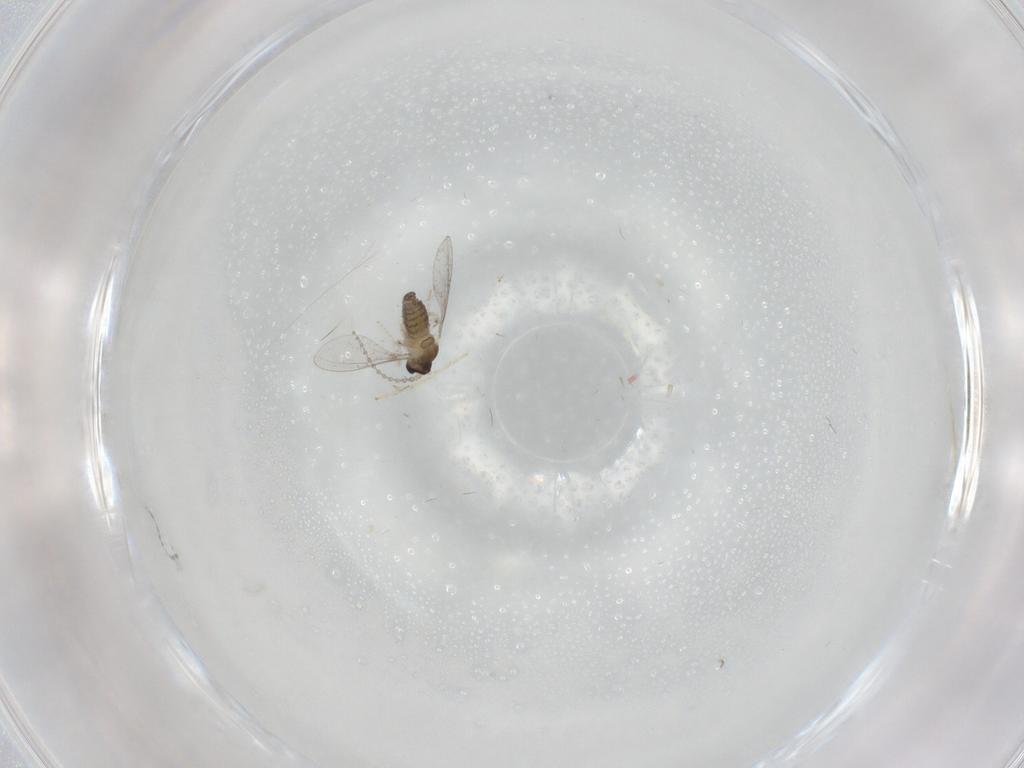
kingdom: Animalia
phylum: Arthropoda
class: Insecta
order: Diptera
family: Cecidomyiidae
